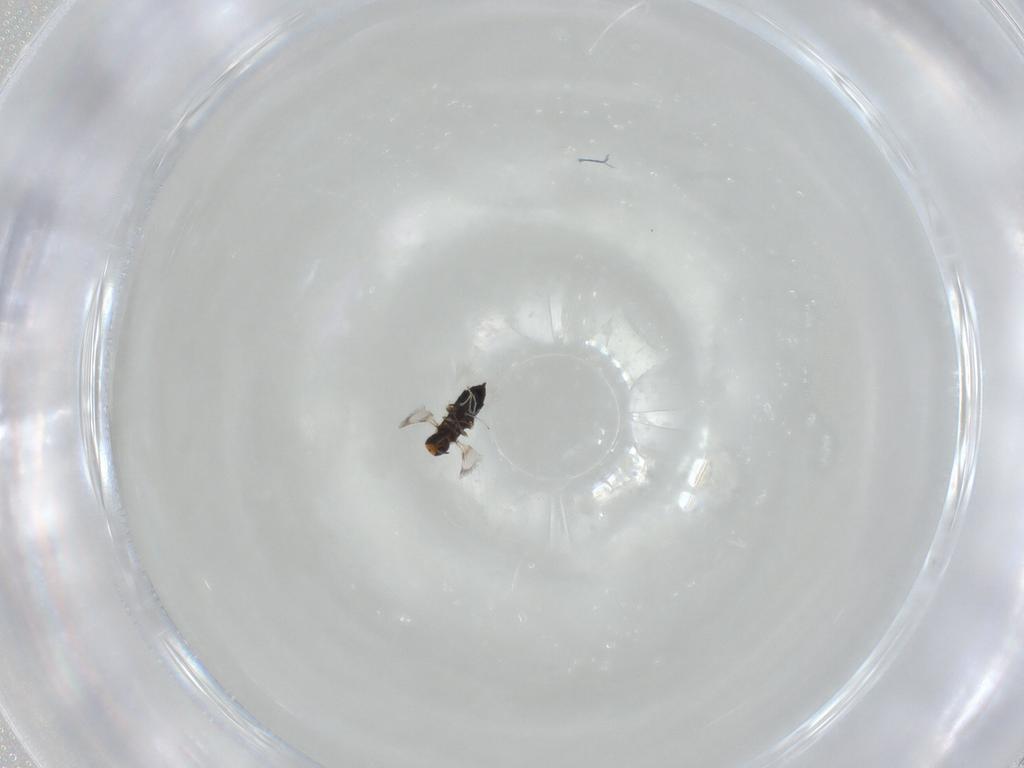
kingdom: Animalia
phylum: Arthropoda
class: Insecta
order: Hymenoptera
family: Signiphoridae
